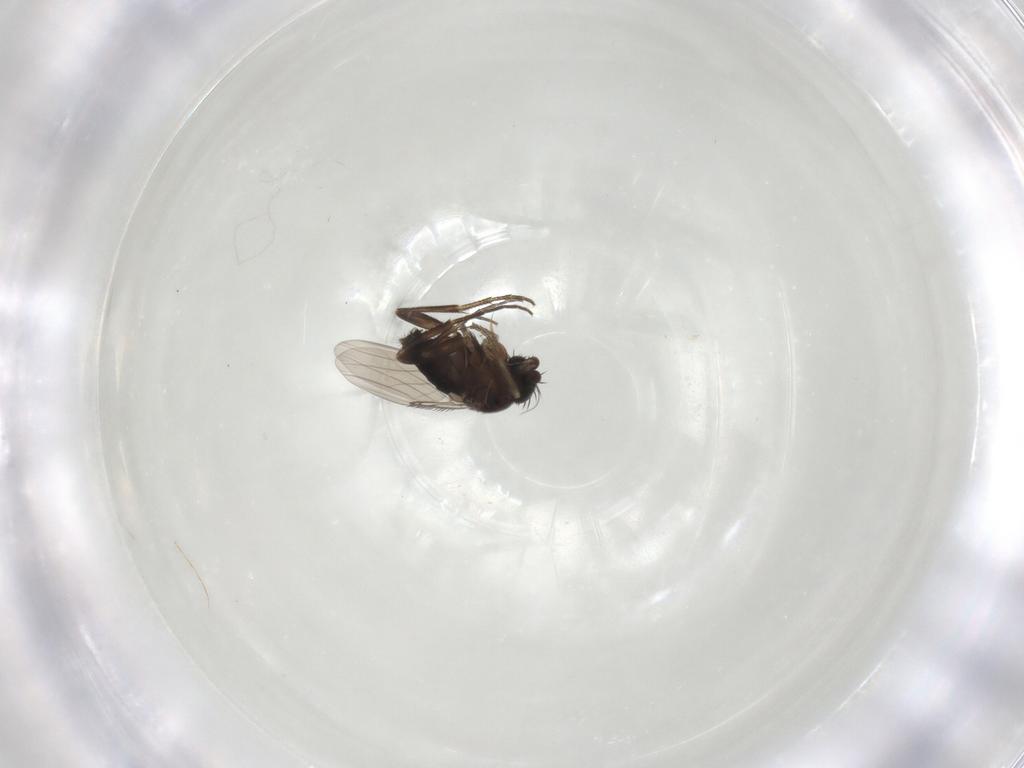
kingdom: Animalia
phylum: Arthropoda
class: Insecta
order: Diptera
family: Phoridae
